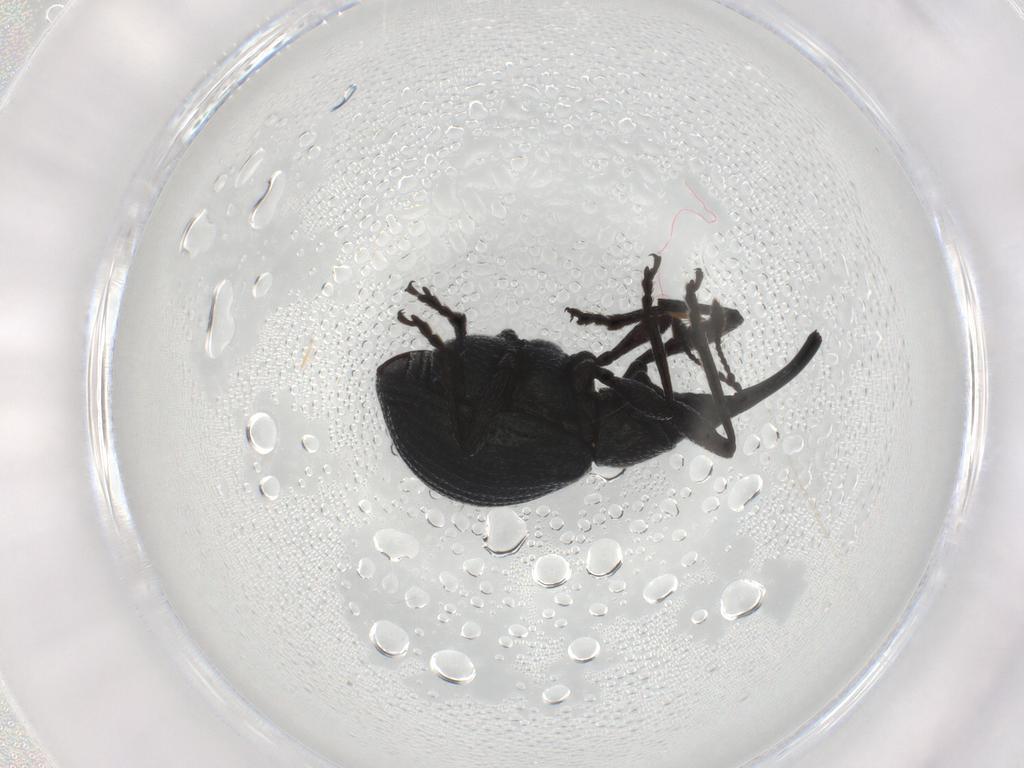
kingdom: Animalia
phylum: Arthropoda
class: Insecta
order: Coleoptera
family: Brentidae
